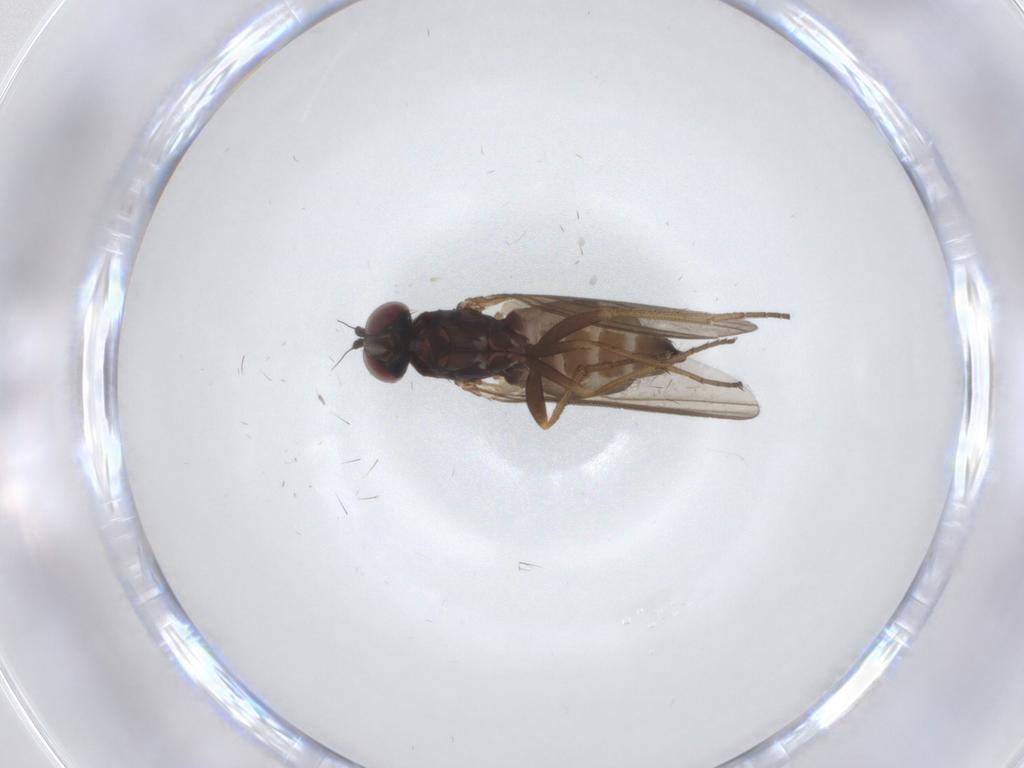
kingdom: Animalia
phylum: Arthropoda
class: Insecta
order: Diptera
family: Dolichopodidae
